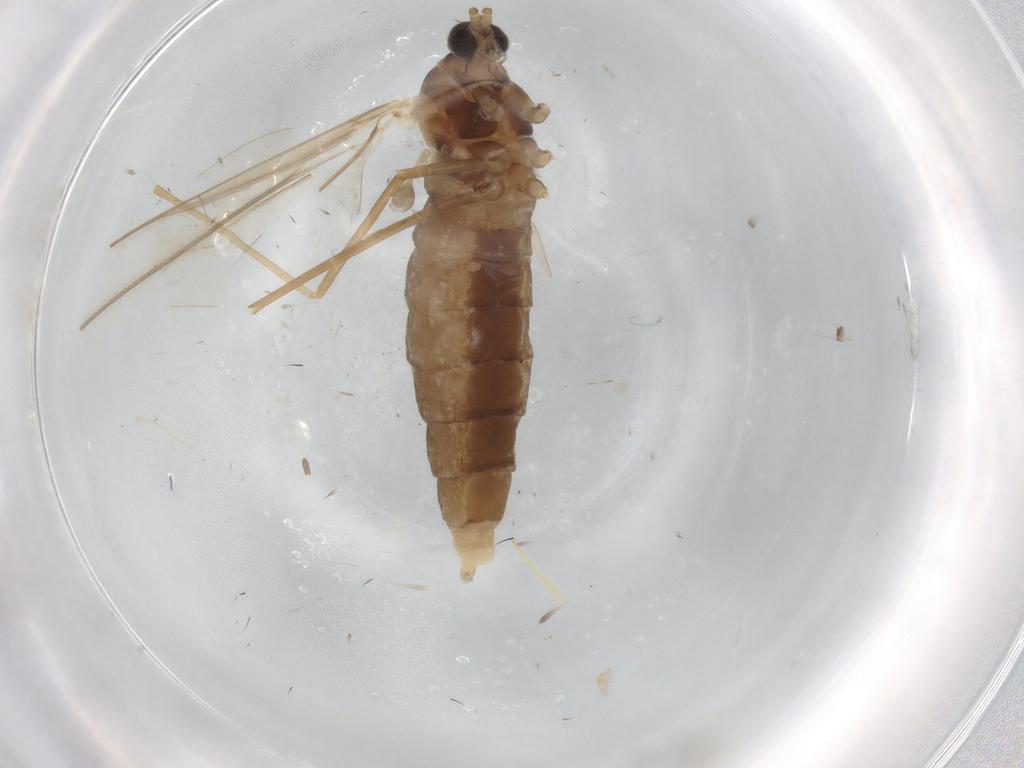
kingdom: Animalia
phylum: Arthropoda
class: Insecta
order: Diptera
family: Cecidomyiidae
